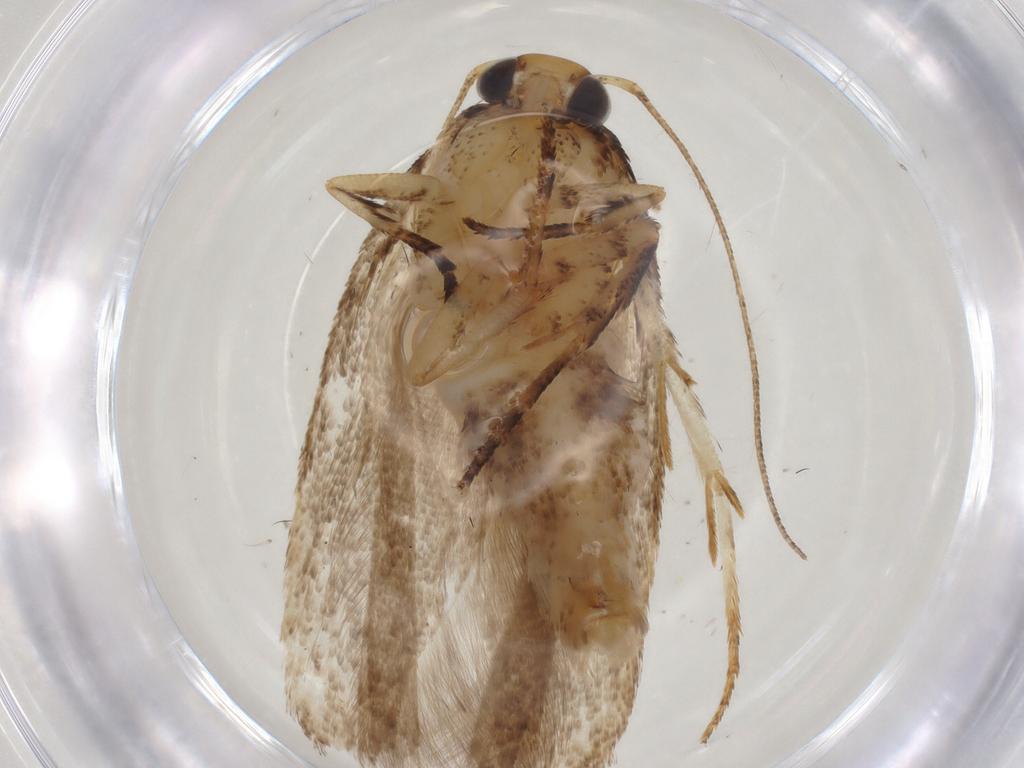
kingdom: Animalia
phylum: Arthropoda
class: Insecta
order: Lepidoptera
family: Gelechiidae
